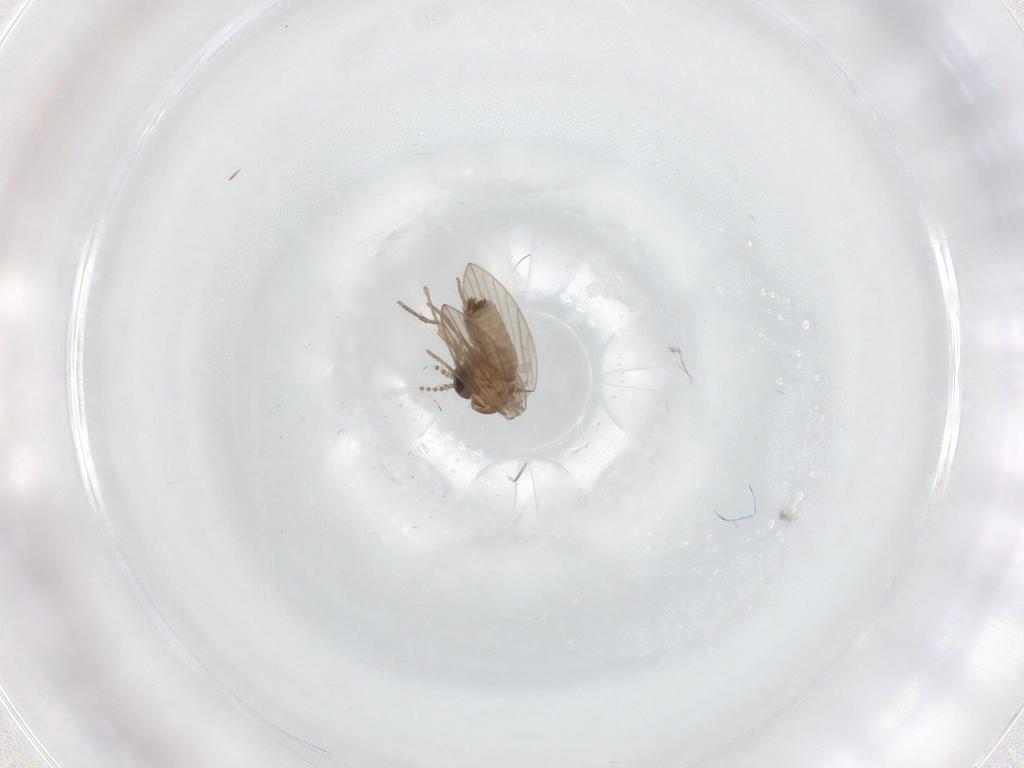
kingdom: Animalia
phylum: Arthropoda
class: Insecta
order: Diptera
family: Psychodidae
